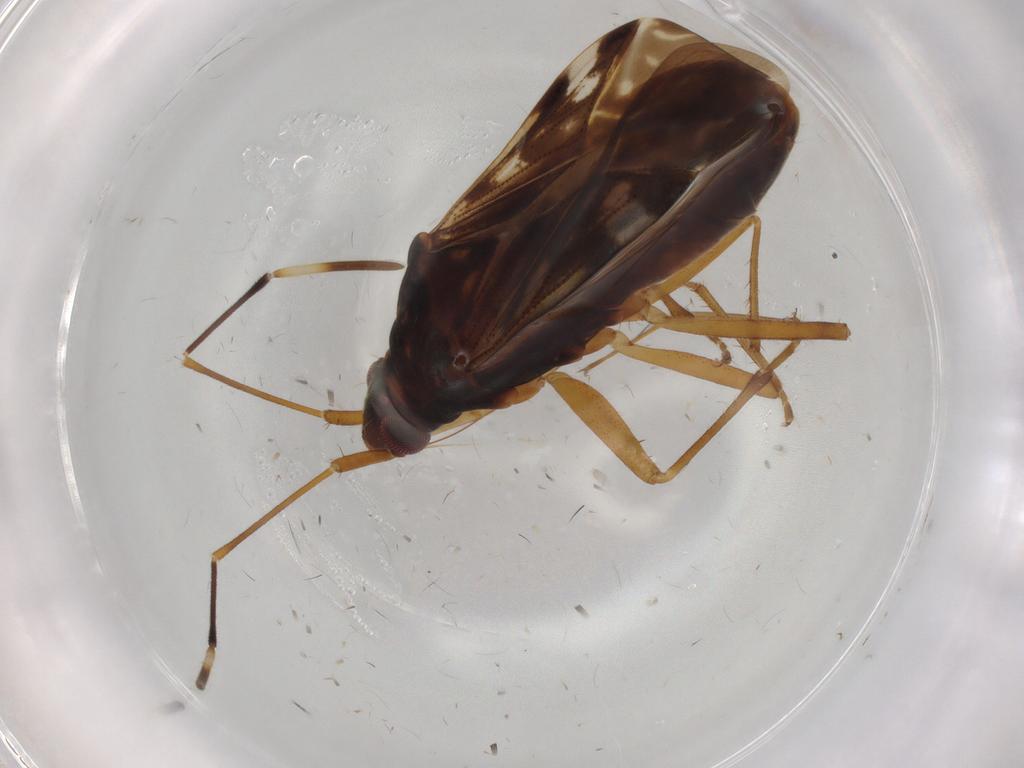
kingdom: Animalia
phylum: Arthropoda
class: Insecta
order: Hemiptera
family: Rhyparochromidae
